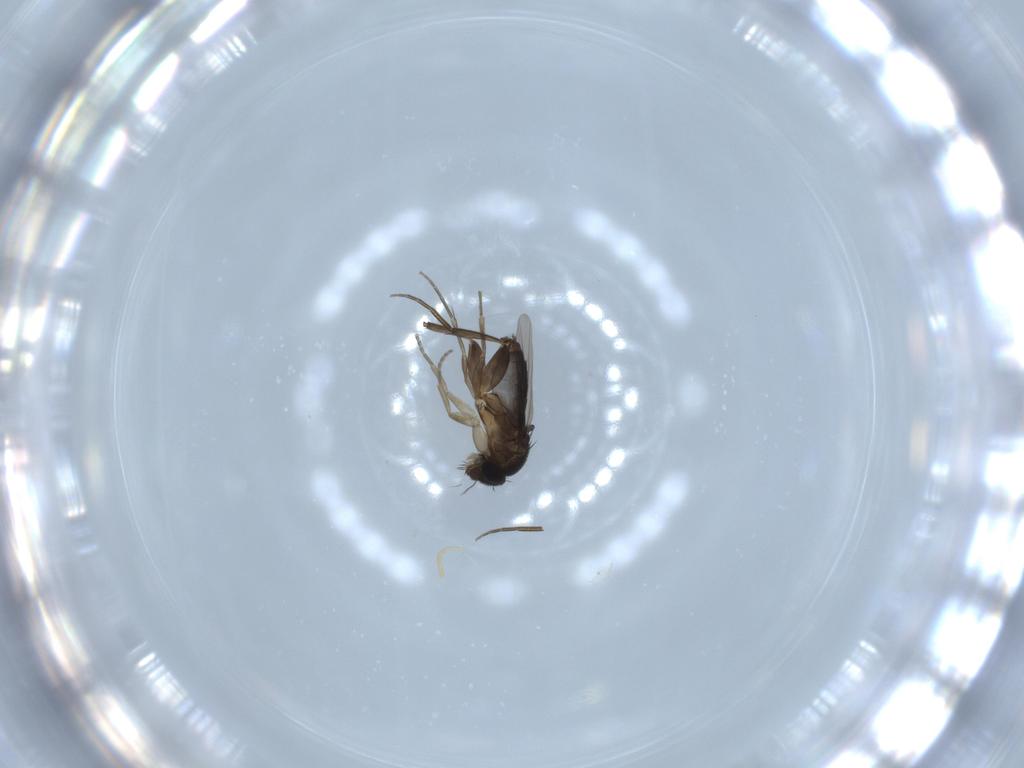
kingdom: Animalia
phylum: Arthropoda
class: Insecta
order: Diptera
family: Phoridae
